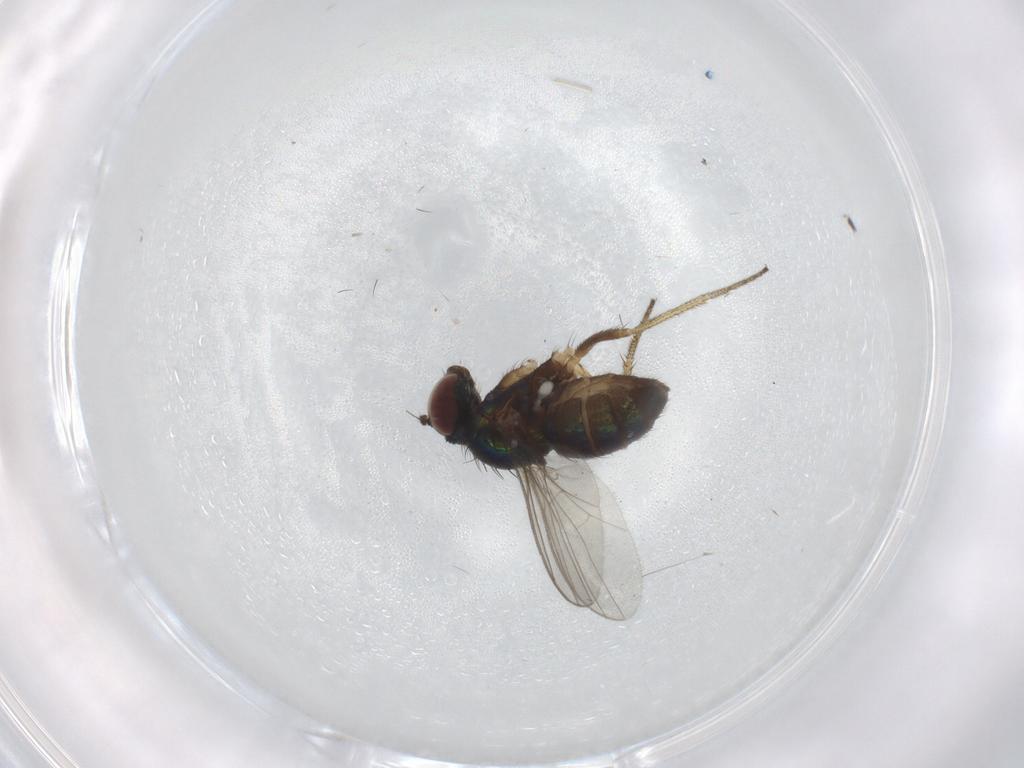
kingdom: Animalia
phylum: Arthropoda
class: Insecta
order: Diptera
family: Dolichopodidae
